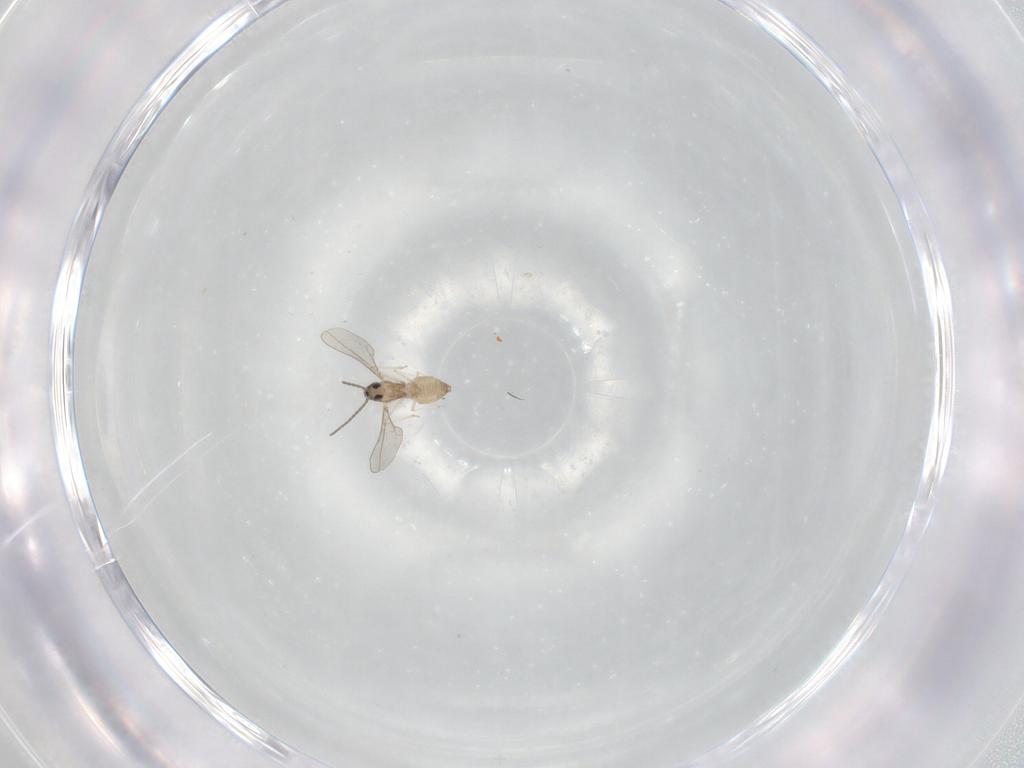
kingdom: Animalia
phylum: Arthropoda
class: Insecta
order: Diptera
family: Cecidomyiidae
